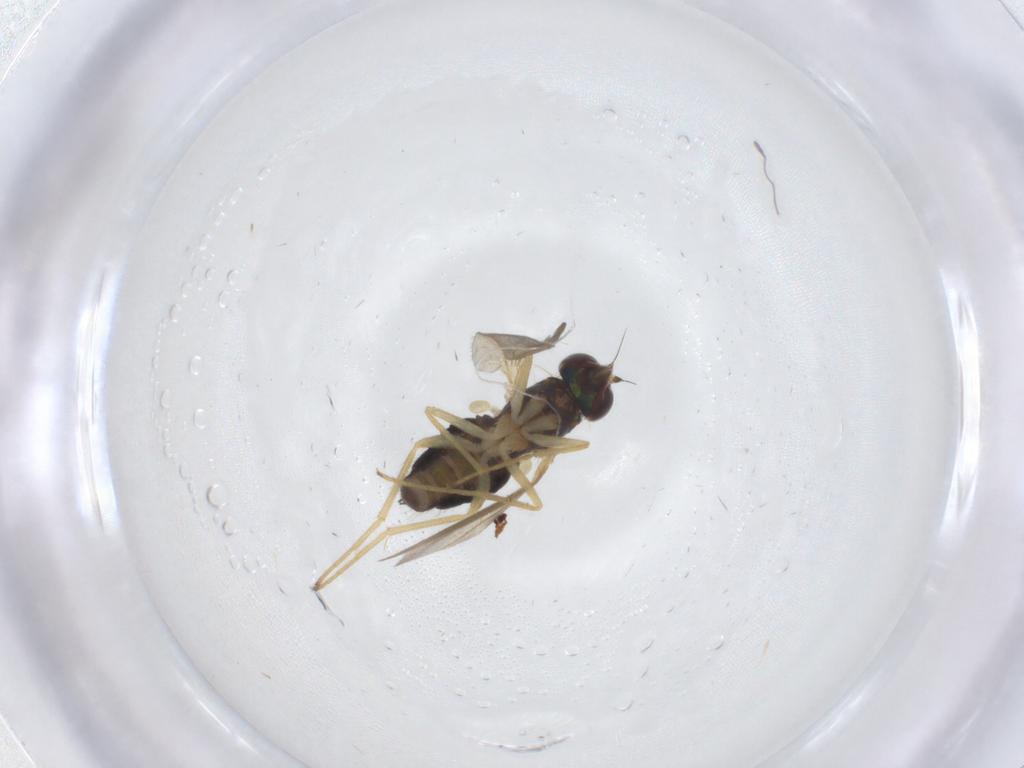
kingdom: Animalia
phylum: Arthropoda
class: Insecta
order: Diptera
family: Dolichopodidae
